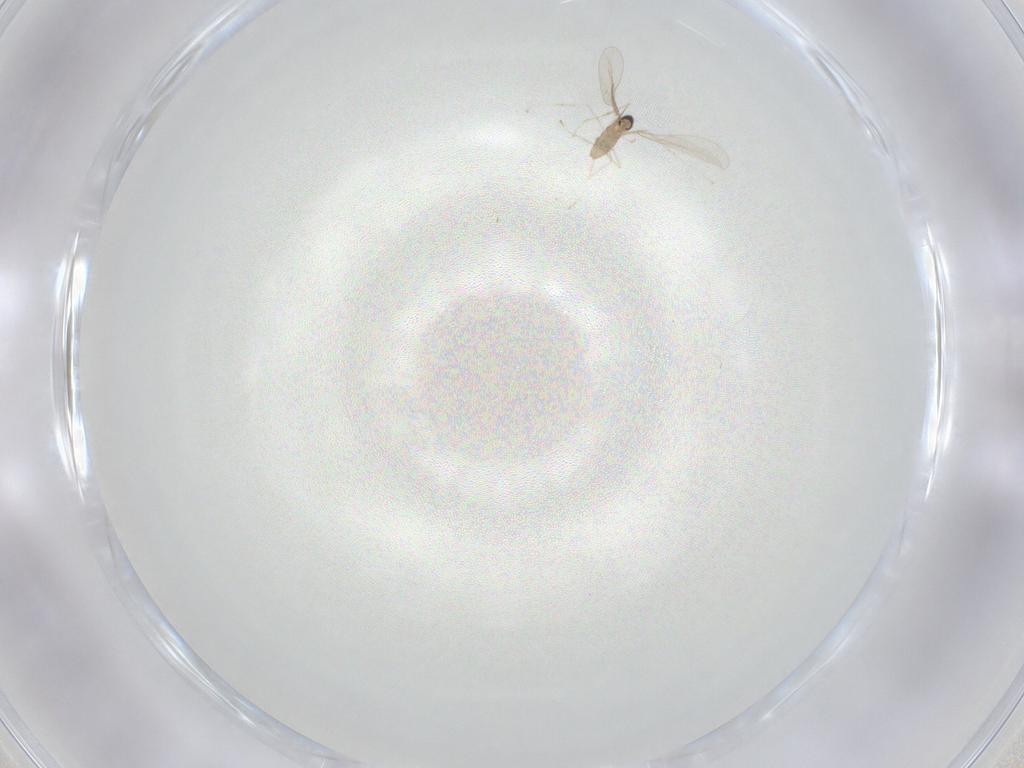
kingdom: Animalia
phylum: Arthropoda
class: Insecta
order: Diptera
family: Cecidomyiidae
